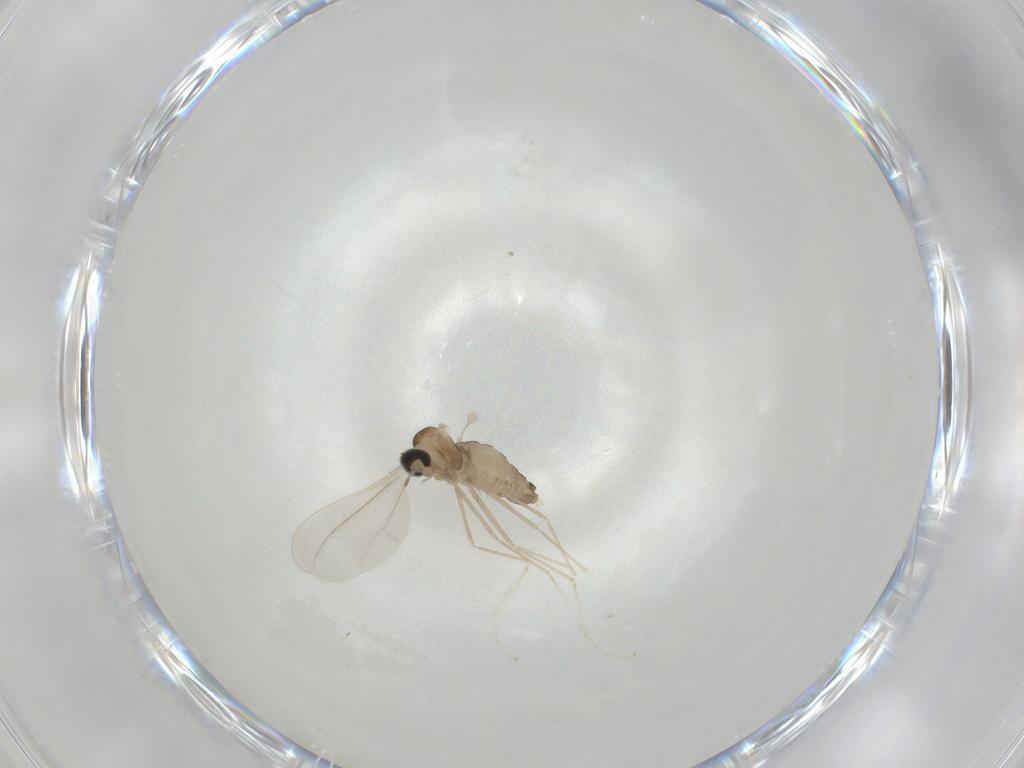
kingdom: Animalia
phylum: Arthropoda
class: Insecta
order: Diptera
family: Cecidomyiidae
